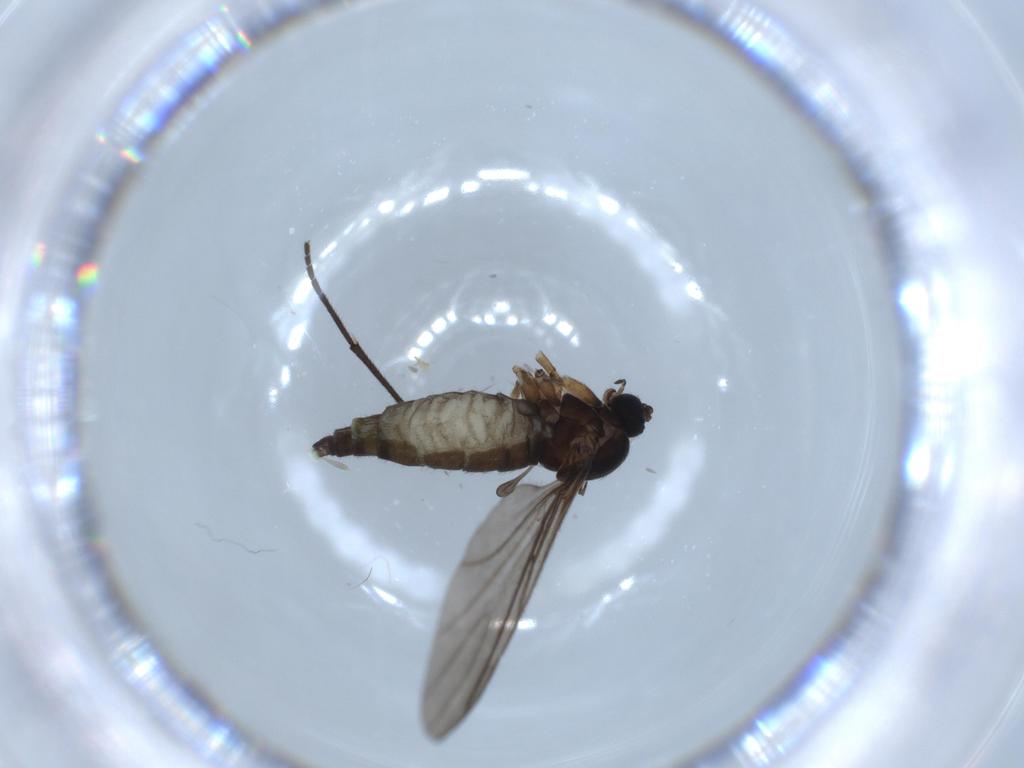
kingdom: Animalia
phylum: Arthropoda
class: Insecta
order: Diptera
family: Sciaridae
